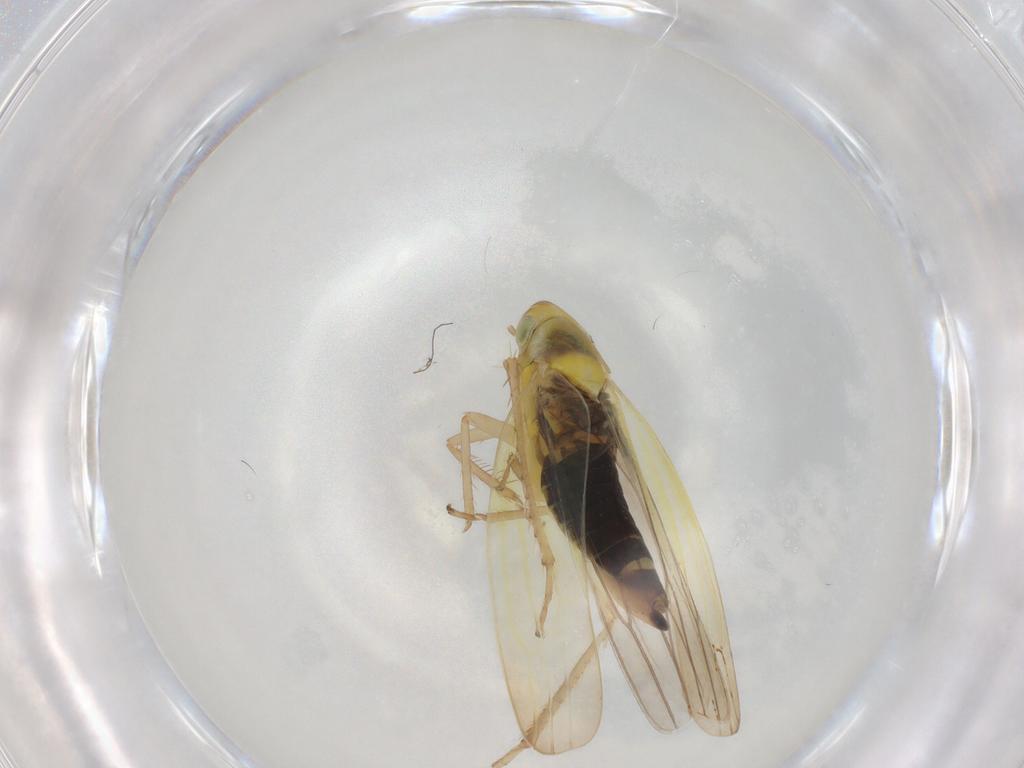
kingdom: Animalia
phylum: Arthropoda
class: Insecta
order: Hemiptera
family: Cicadellidae
